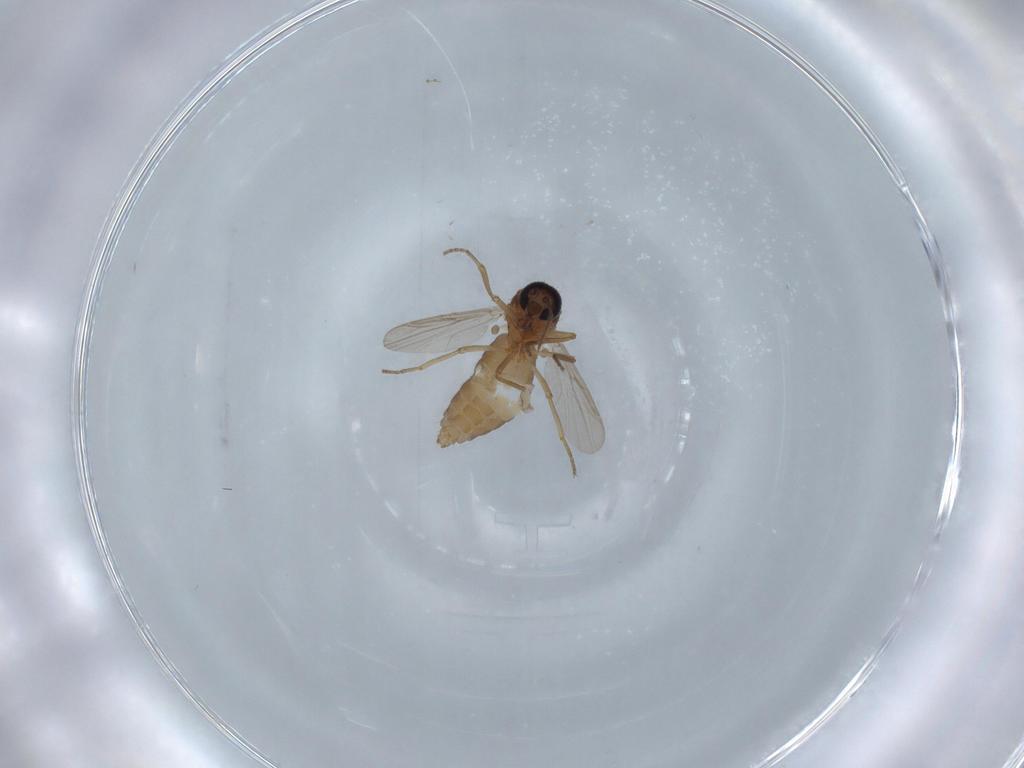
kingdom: Animalia
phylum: Arthropoda
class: Insecta
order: Diptera
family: Ceratopogonidae
